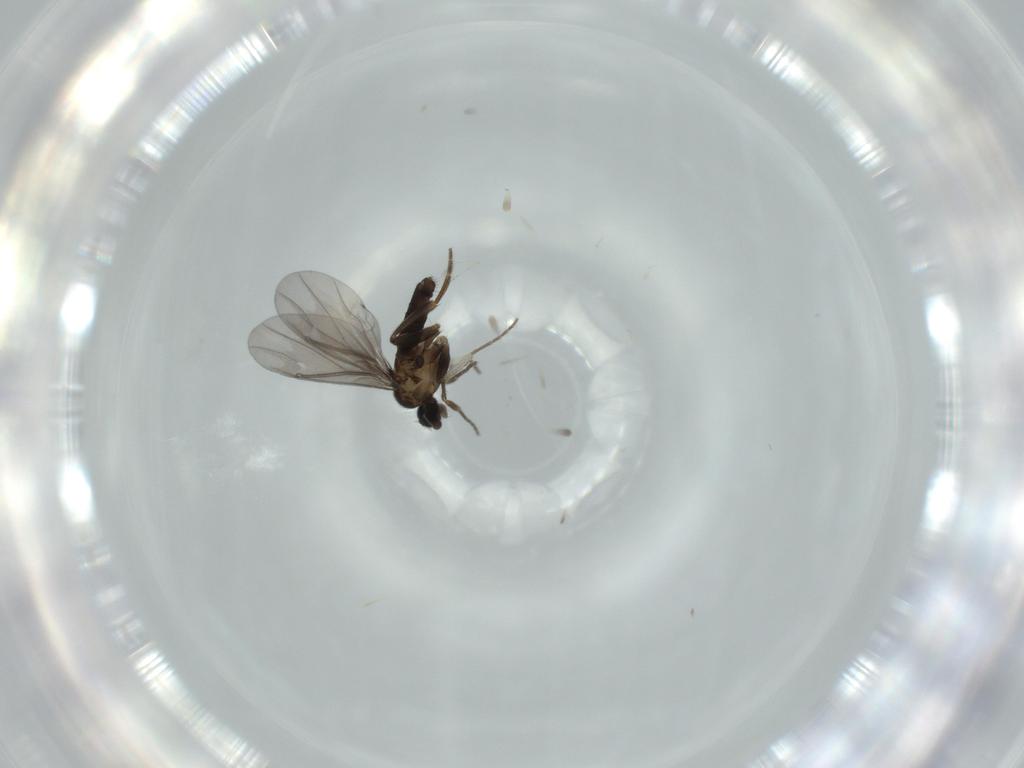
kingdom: Animalia
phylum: Arthropoda
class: Insecta
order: Diptera
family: Phoridae
